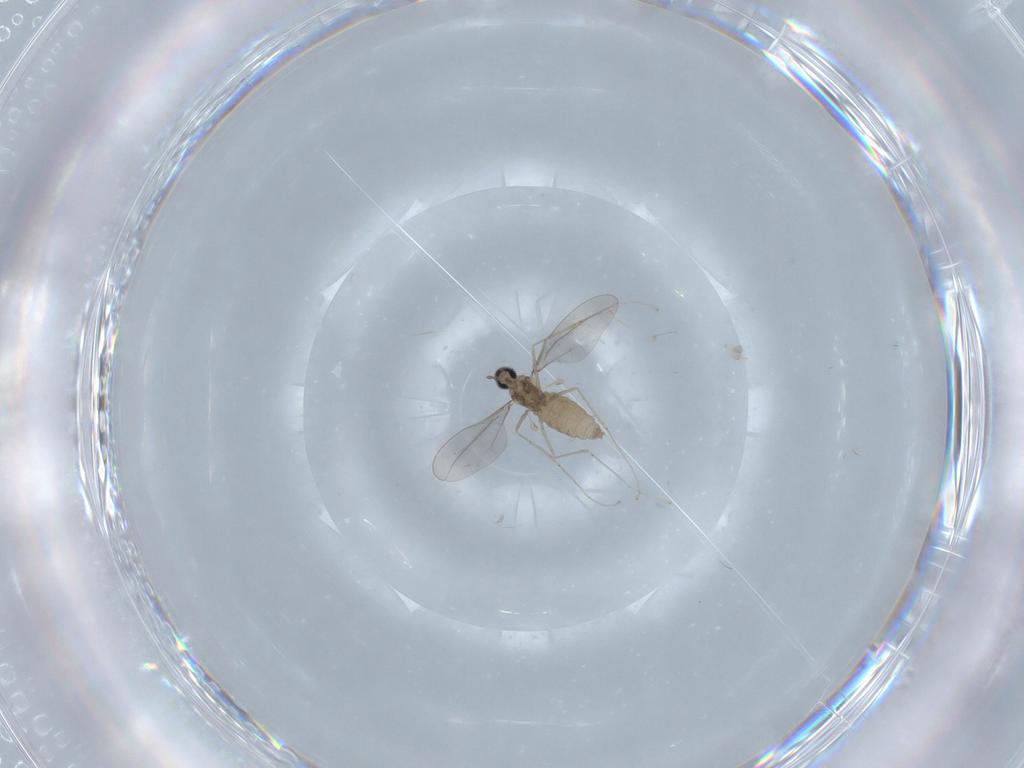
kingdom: Animalia
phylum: Arthropoda
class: Insecta
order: Diptera
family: Cecidomyiidae
